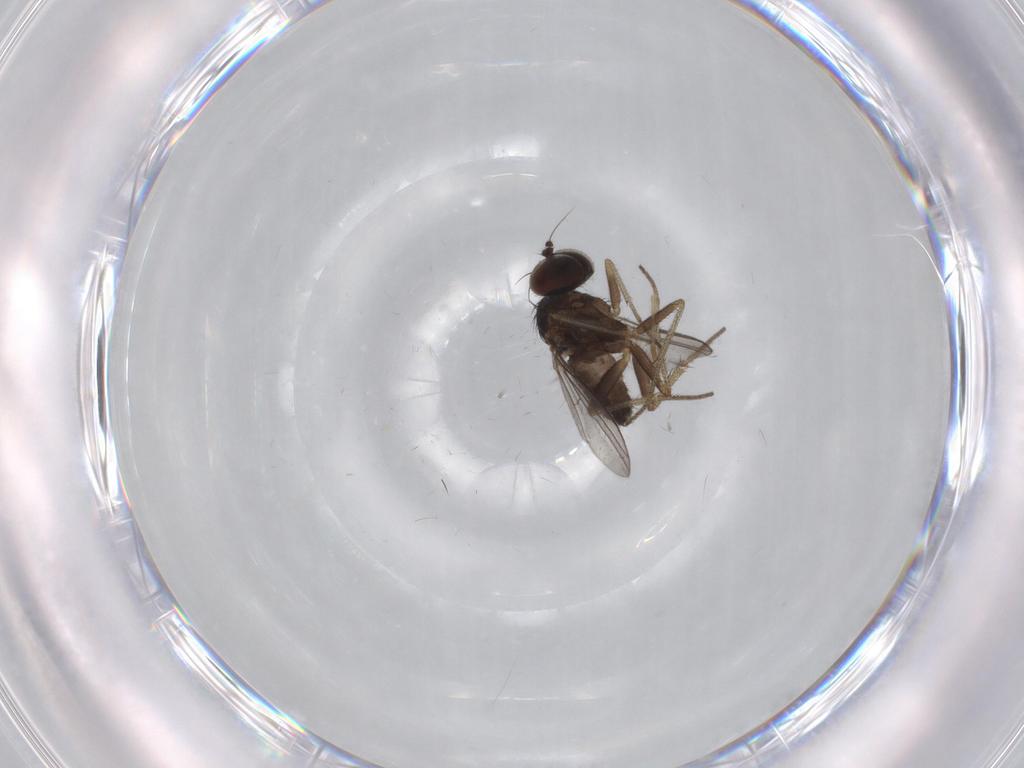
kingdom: Animalia
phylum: Arthropoda
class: Insecta
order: Diptera
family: Chironomidae
